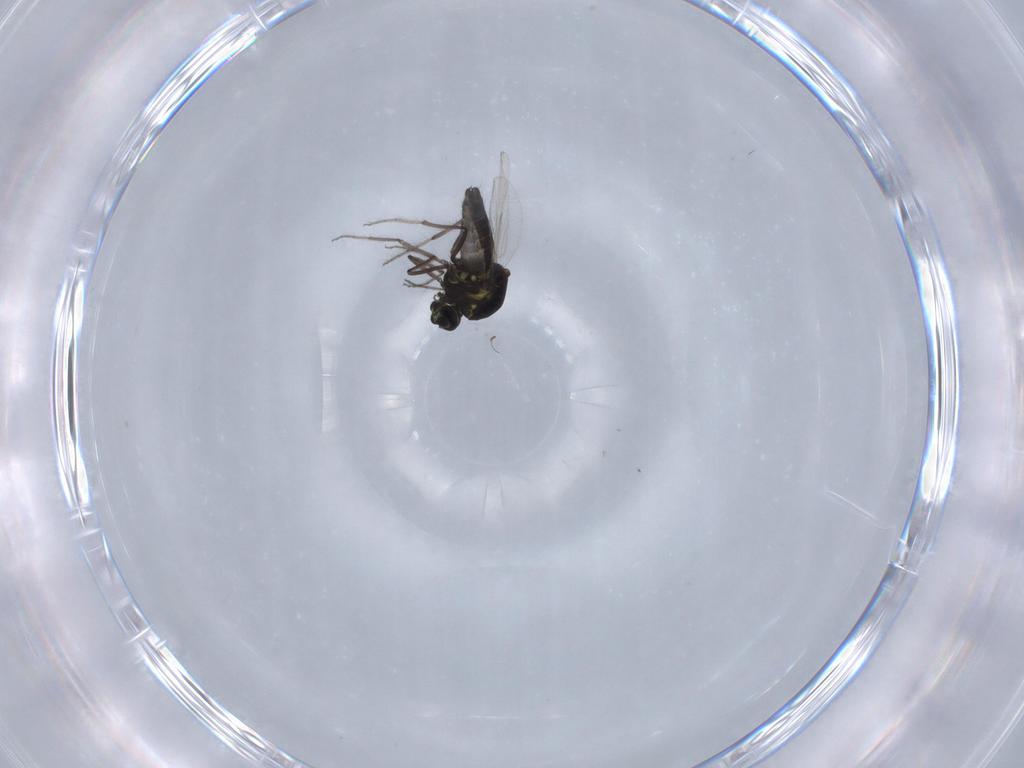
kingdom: Animalia
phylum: Arthropoda
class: Insecta
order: Diptera
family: Ceratopogonidae
